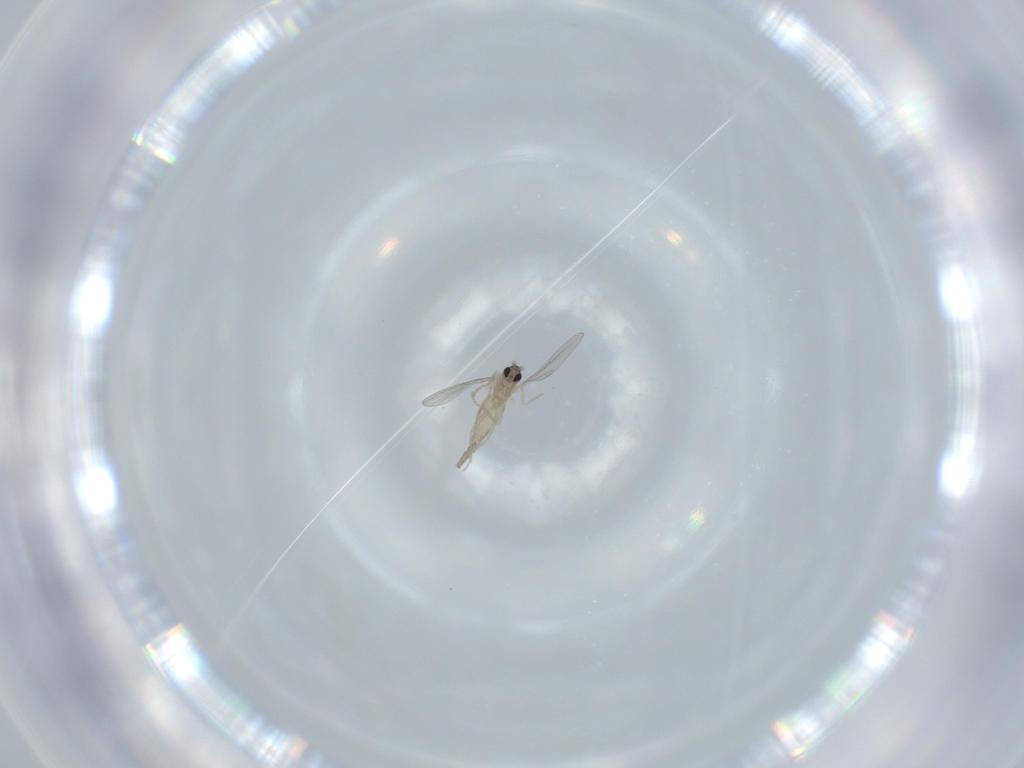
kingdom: Animalia
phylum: Arthropoda
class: Insecta
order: Diptera
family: Cecidomyiidae
